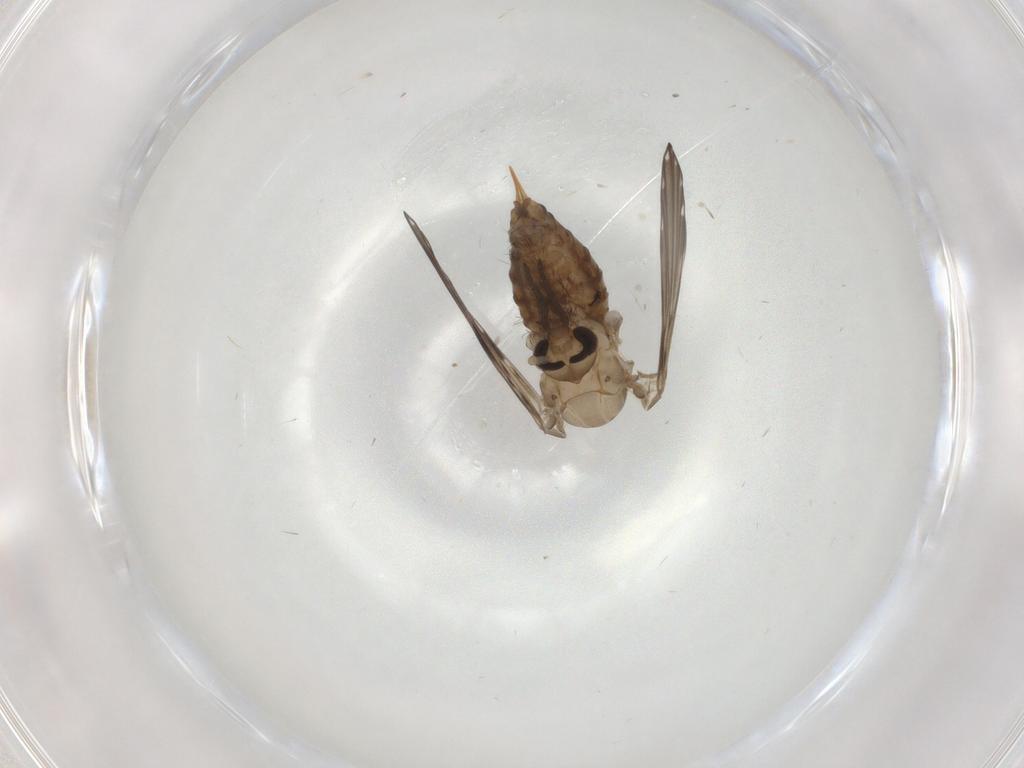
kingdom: Animalia
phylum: Arthropoda
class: Insecta
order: Diptera
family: Psychodidae
